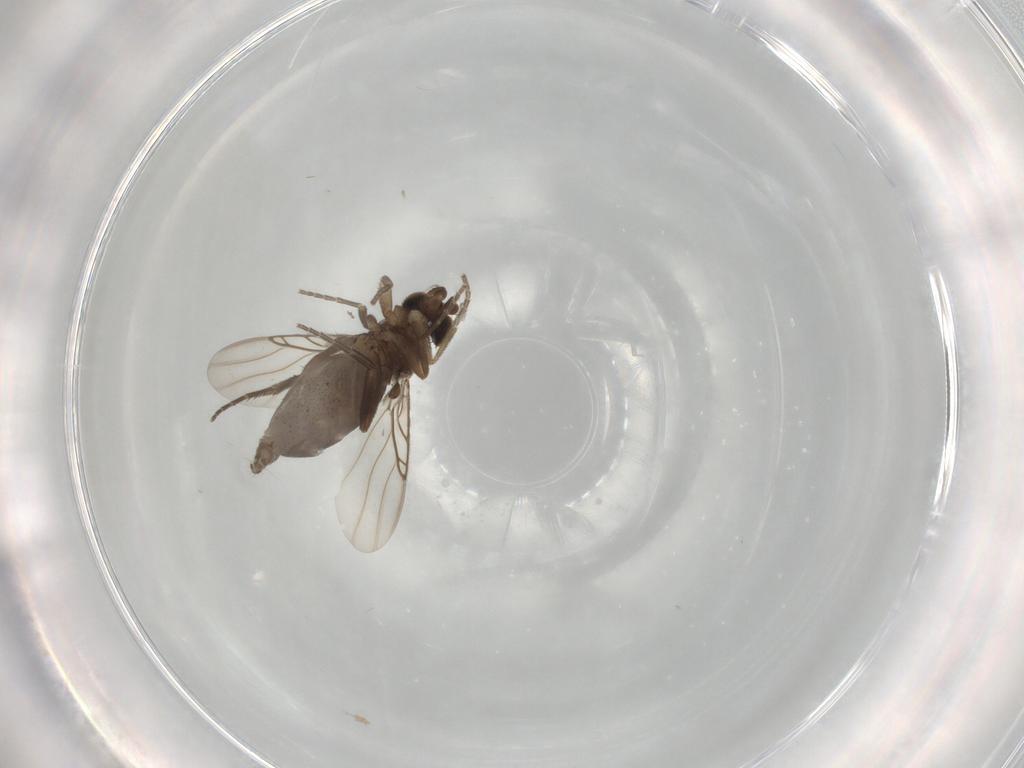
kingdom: Animalia
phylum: Arthropoda
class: Insecta
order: Diptera
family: Phoridae
